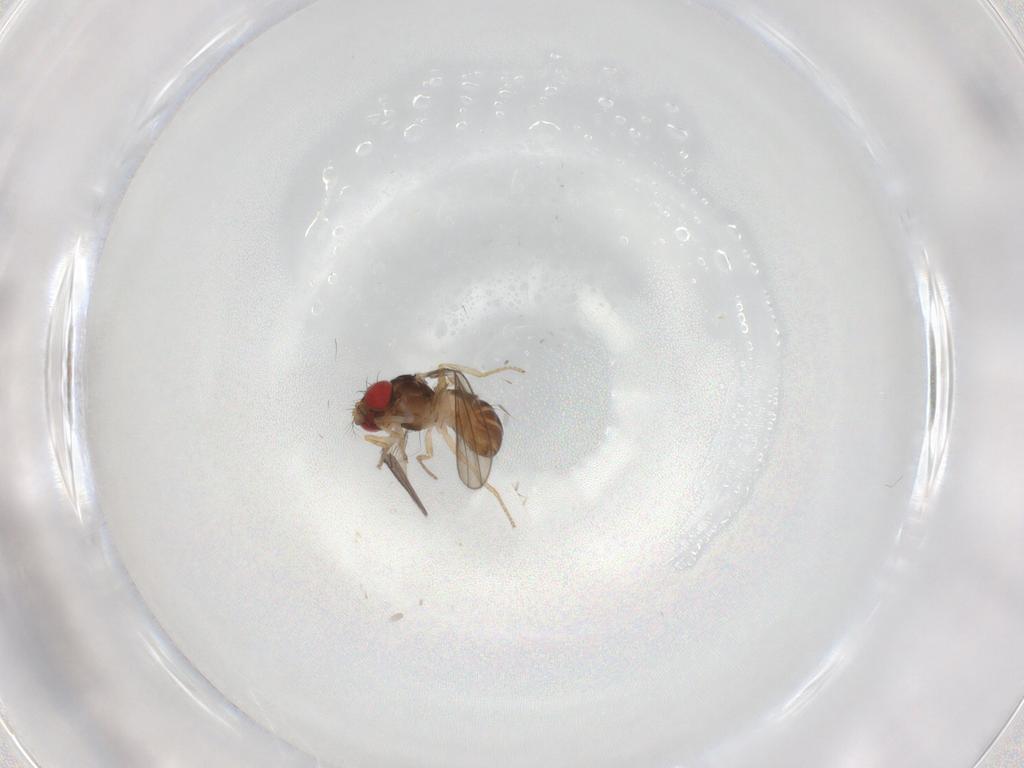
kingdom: Animalia
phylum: Arthropoda
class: Insecta
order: Diptera
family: Drosophilidae
